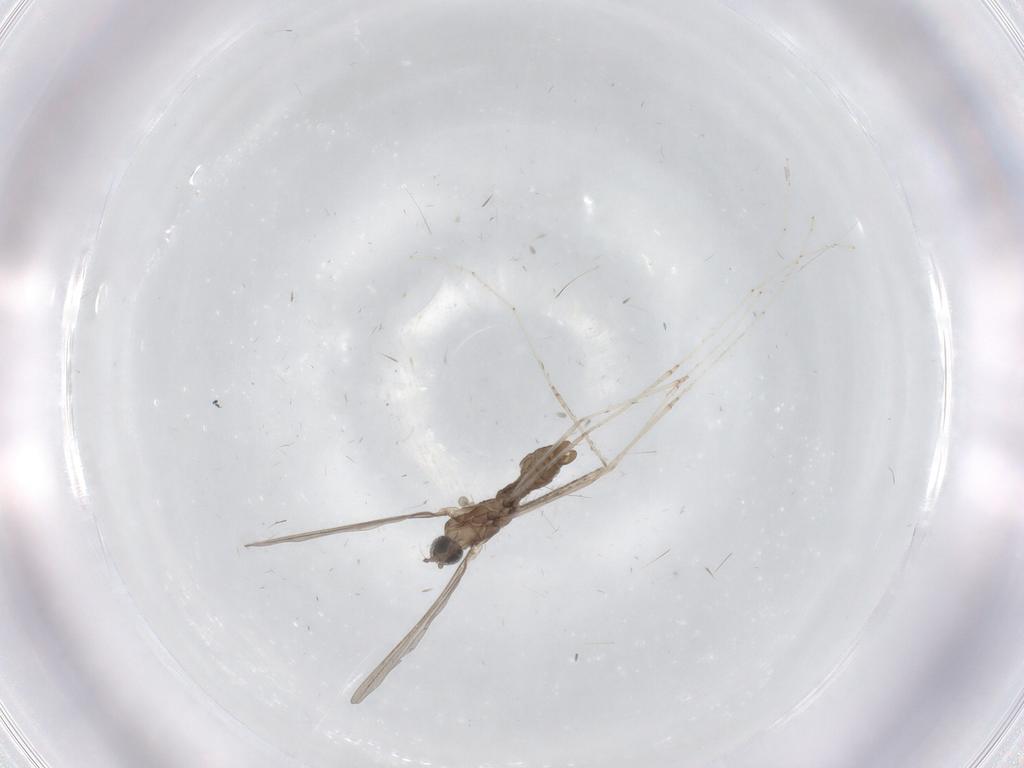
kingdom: Animalia
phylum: Arthropoda
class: Insecta
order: Diptera
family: Cecidomyiidae
